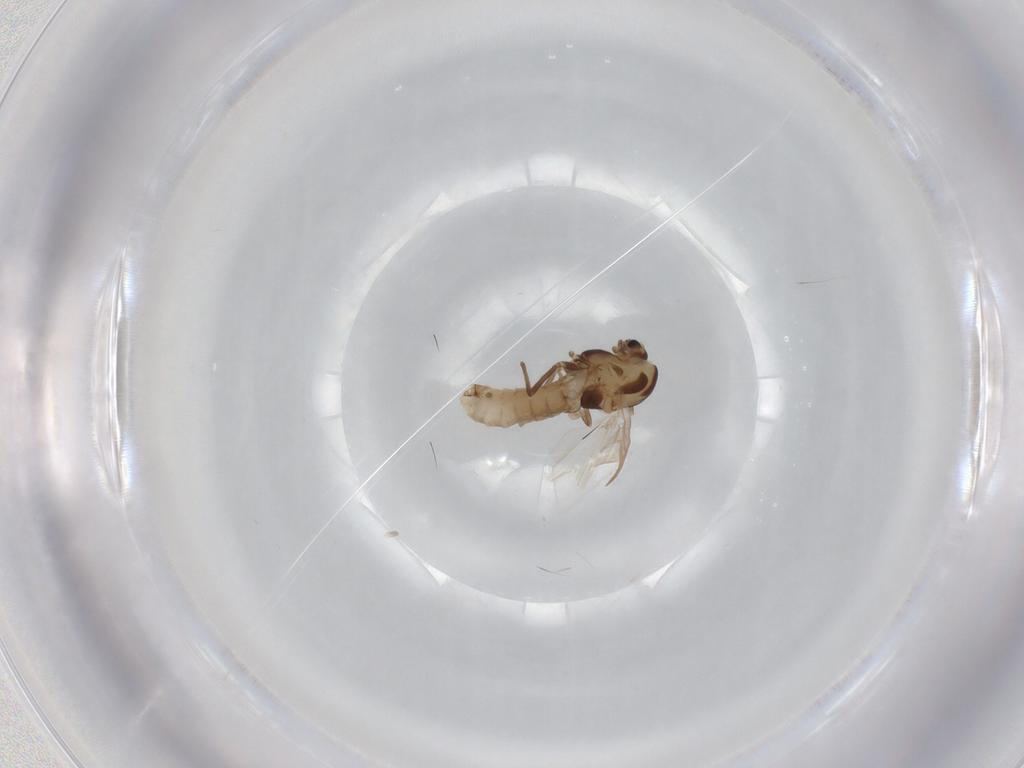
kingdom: Animalia
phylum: Arthropoda
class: Insecta
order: Diptera
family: Chironomidae
